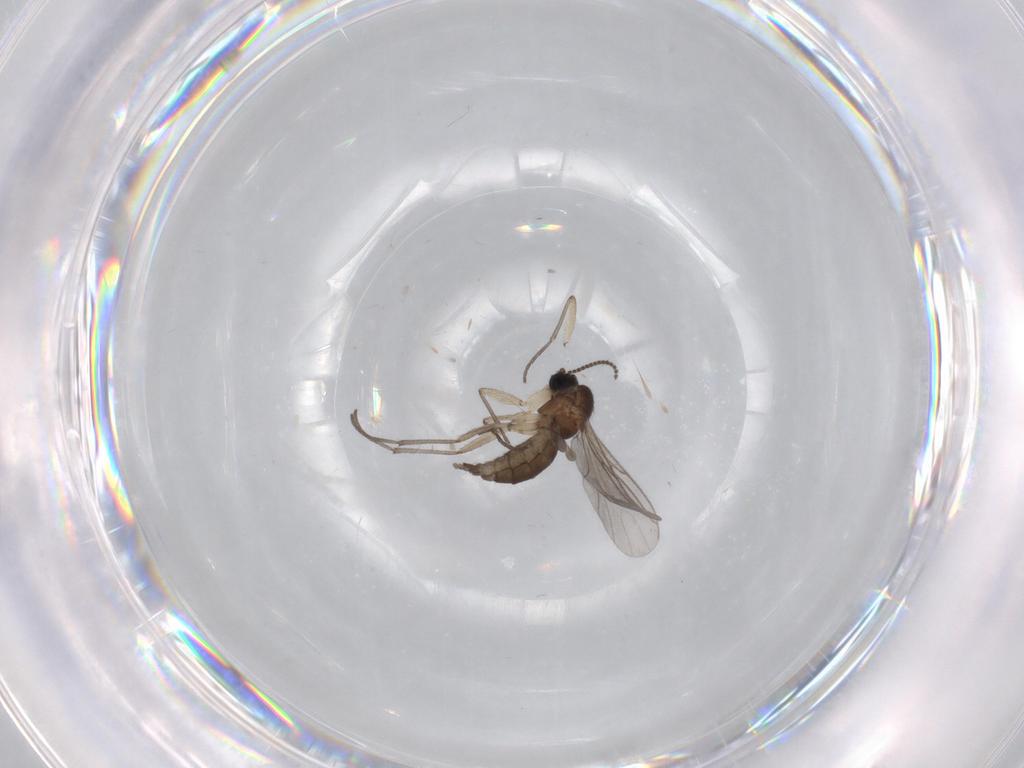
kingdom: Animalia
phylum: Arthropoda
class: Insecta
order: Diptera
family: Sciaridae
